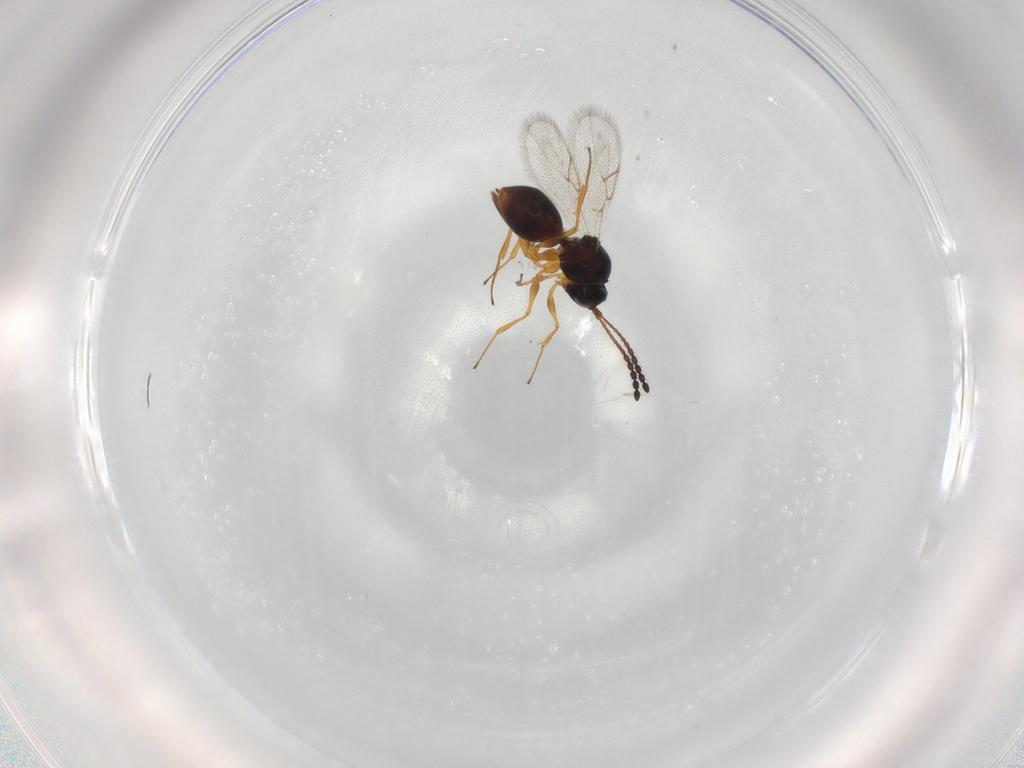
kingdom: Animalia
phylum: Arthropoda
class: Insecta
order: Hymenoptera
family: Figitidae
